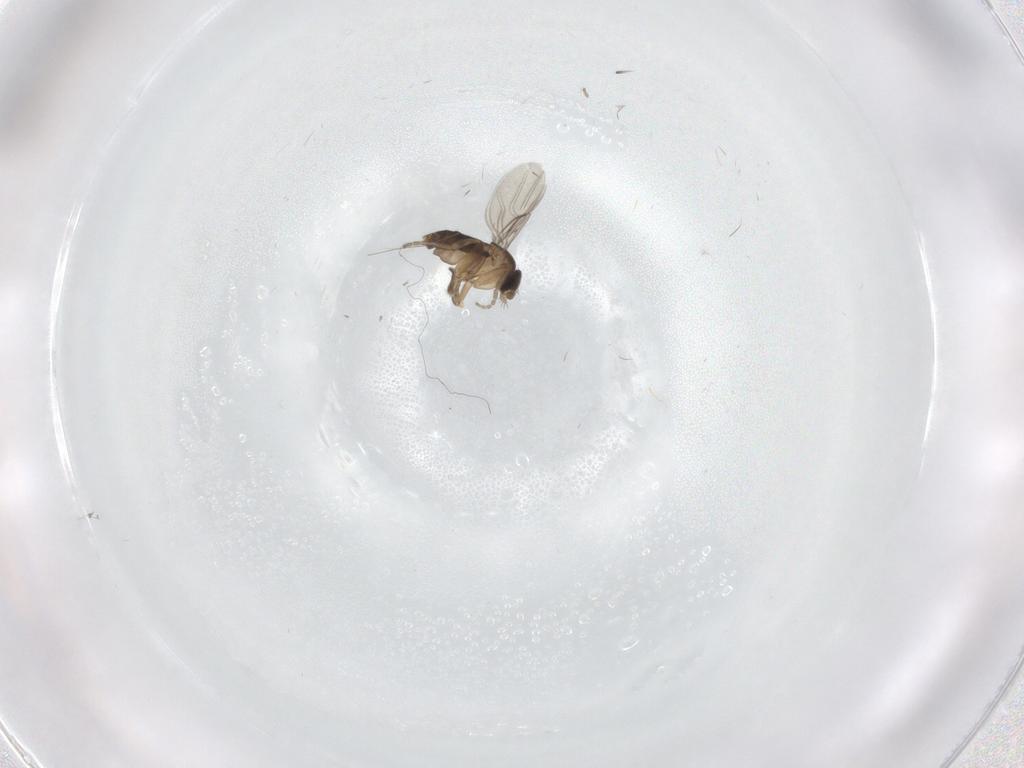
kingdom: Animalia
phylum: Arthropoda
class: Insecta
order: Diptera
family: Phoridae
